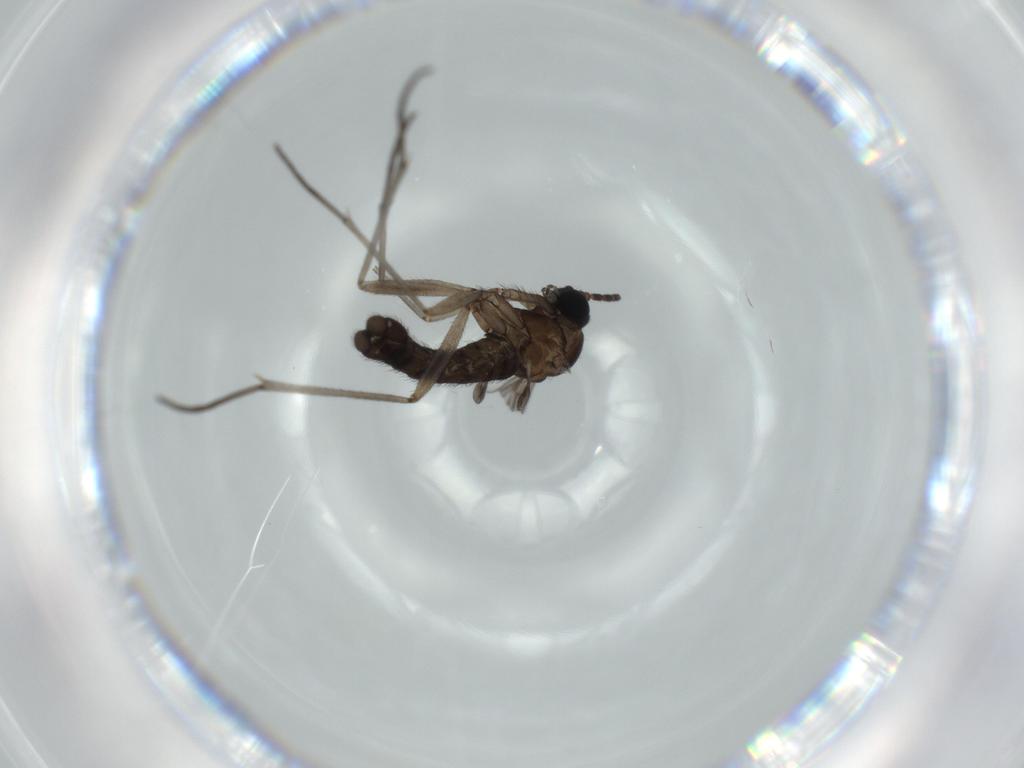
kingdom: Animalia
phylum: Arthropoda
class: Insecta
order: Diptera
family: Sciaridae
